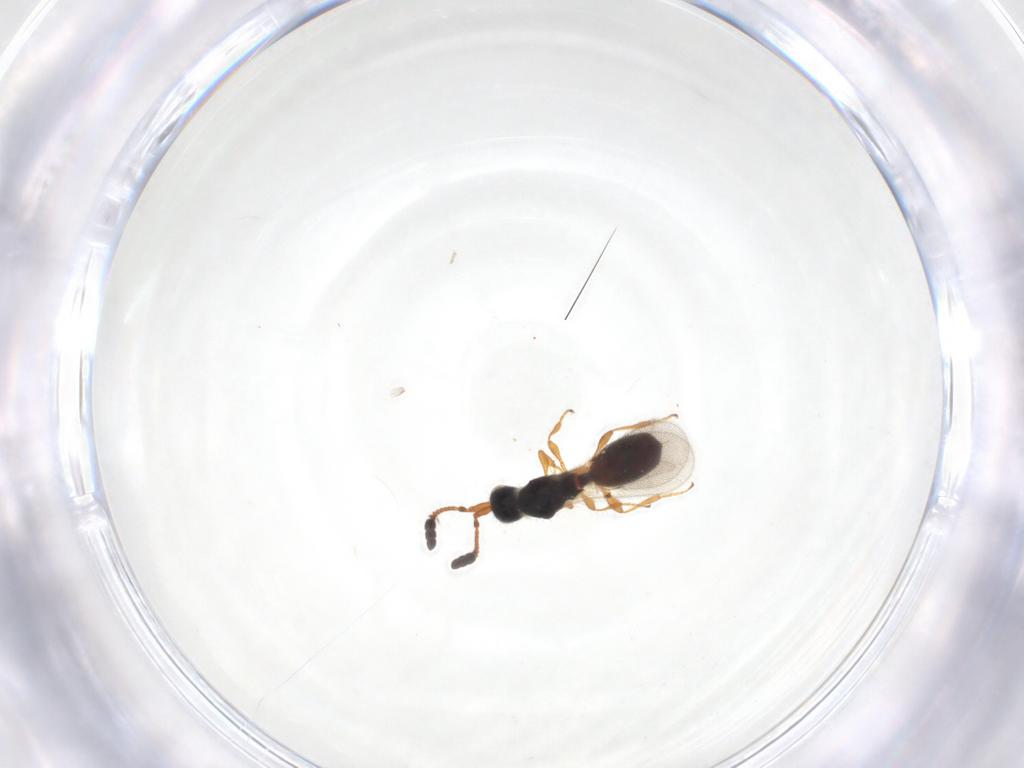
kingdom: Animalia
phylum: Arthropoda
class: Insecta
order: Hymenoptera
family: Diapriidae
